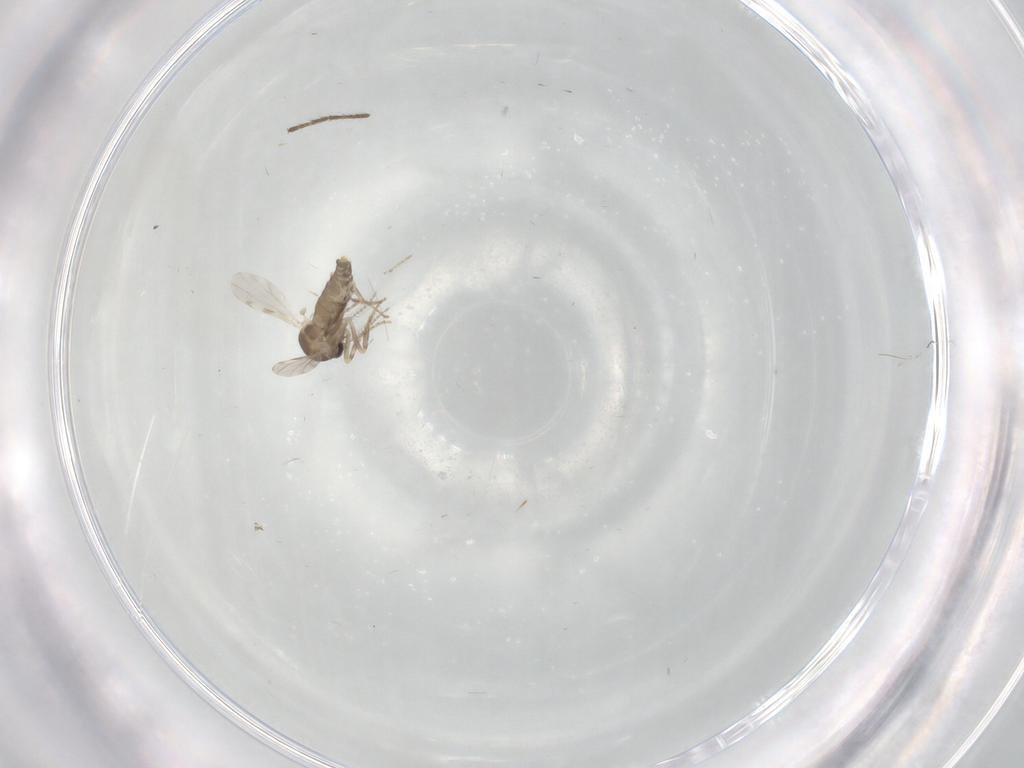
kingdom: Animalia
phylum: Arthropoda
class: Insecta
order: Diptera
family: Ceratopogonidae
